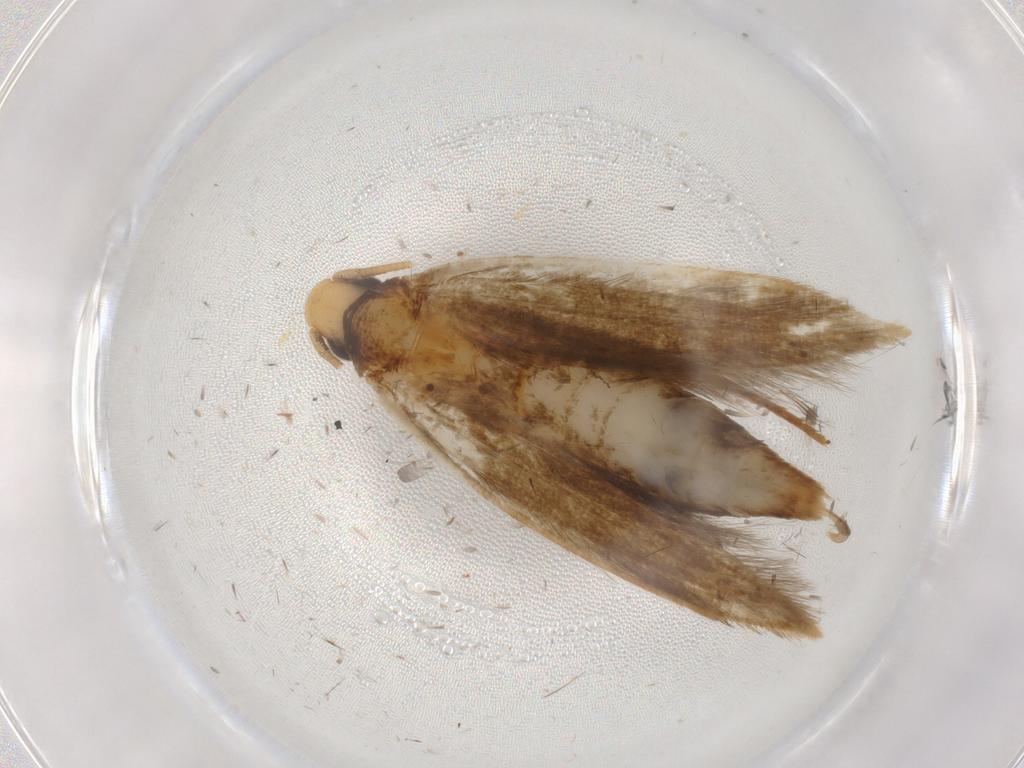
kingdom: Animalia
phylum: Arthropoda
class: Insecta
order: Lepidoptera
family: Tineidae
